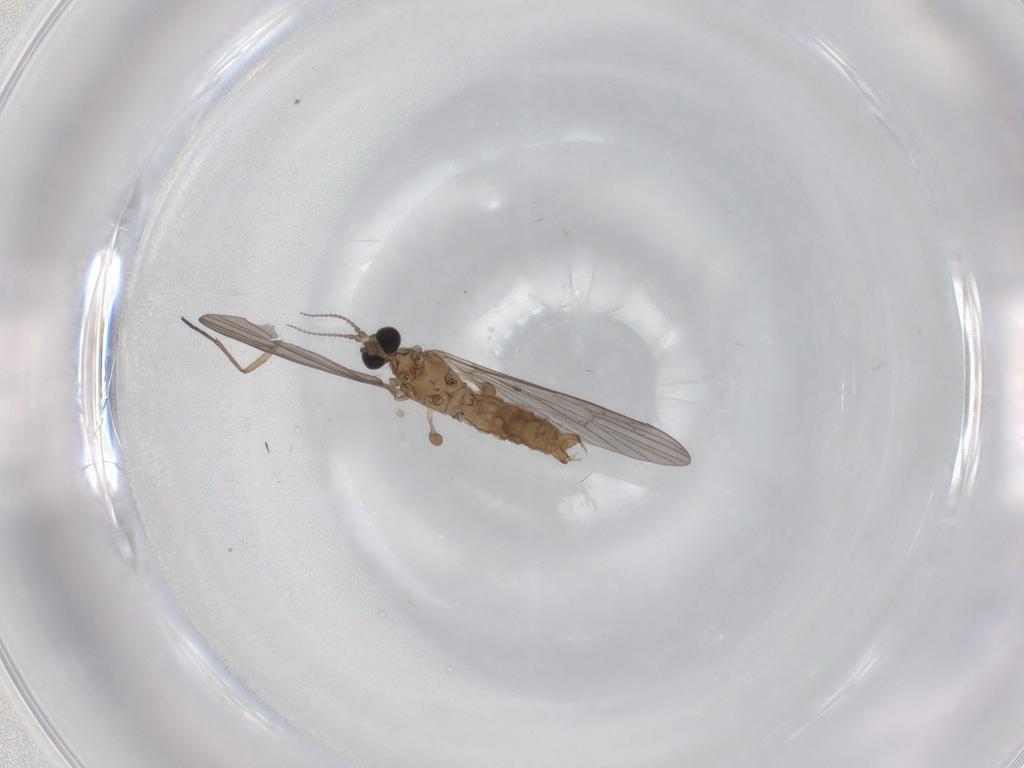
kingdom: Animalia
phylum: Arthropoda
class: Insecta
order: Diptera
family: Limoniidae
